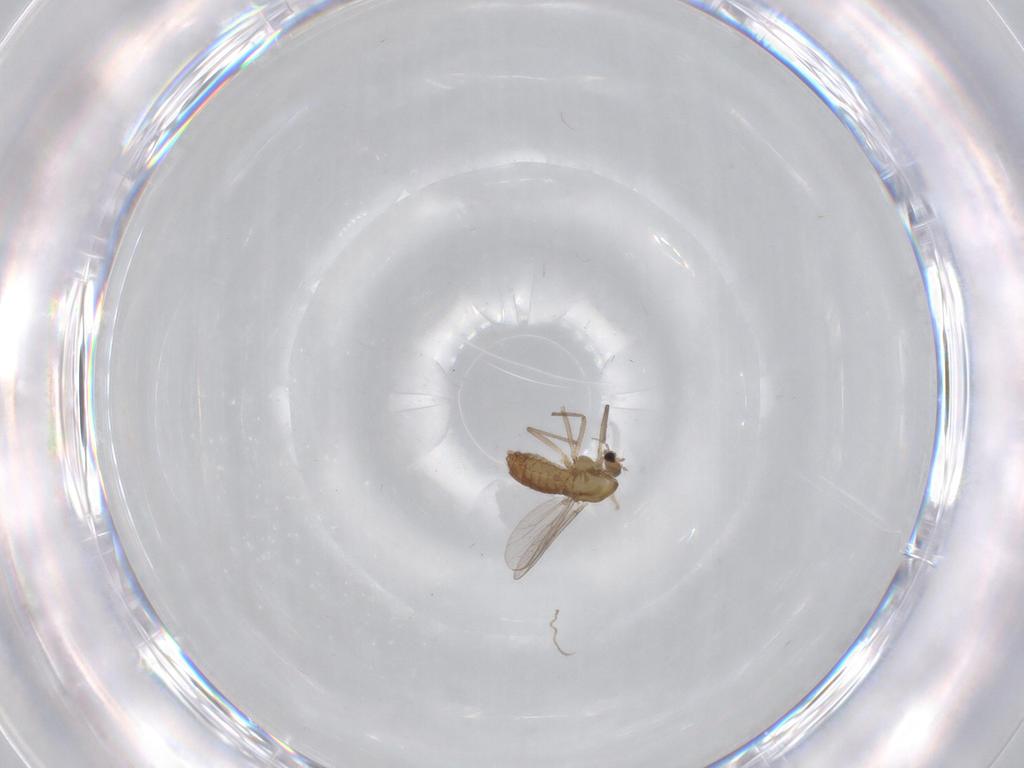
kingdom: Animalia
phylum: Arthropoda
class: Insecta
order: Diptera
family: Chironomidae
